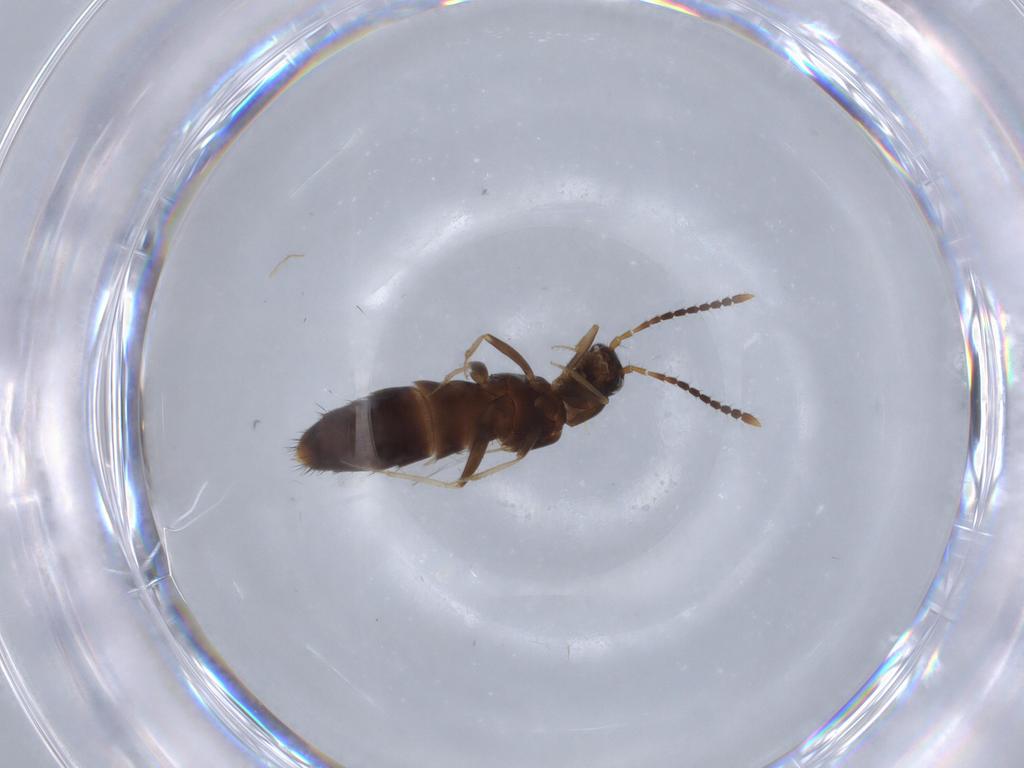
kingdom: Animalia
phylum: Arthropoda
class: Insecta
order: Coleoptera
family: Staphylinidae
